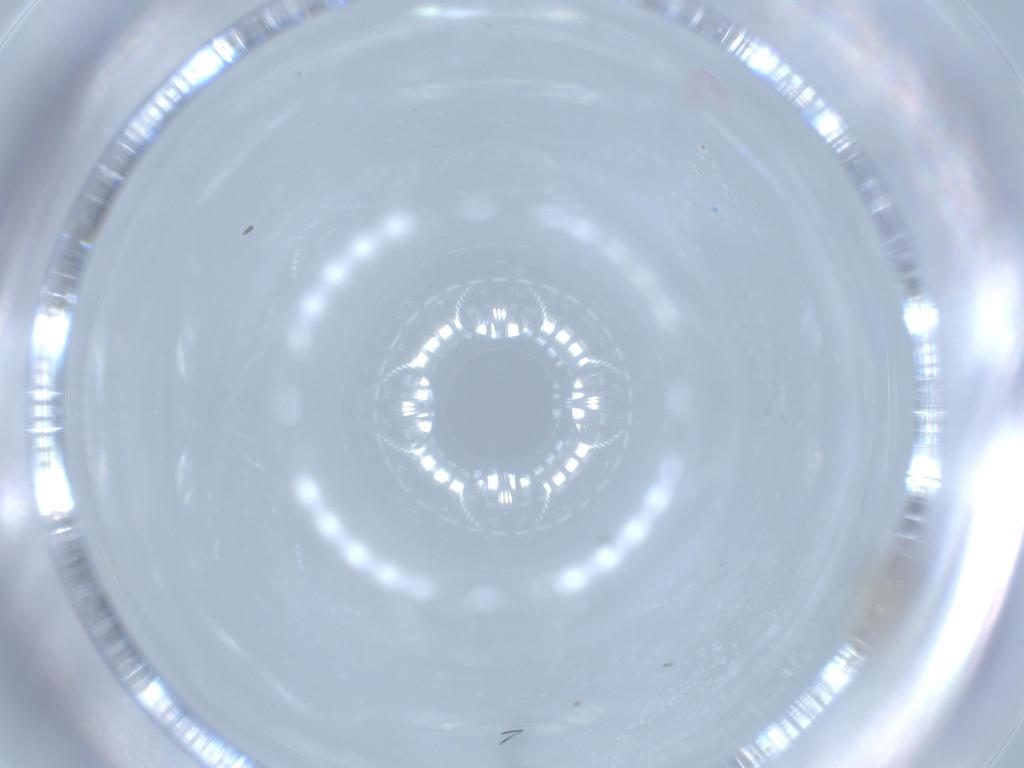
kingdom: Animalia
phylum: Arthropoda
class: Insecta
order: Diptera
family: Cecidomyiidae
